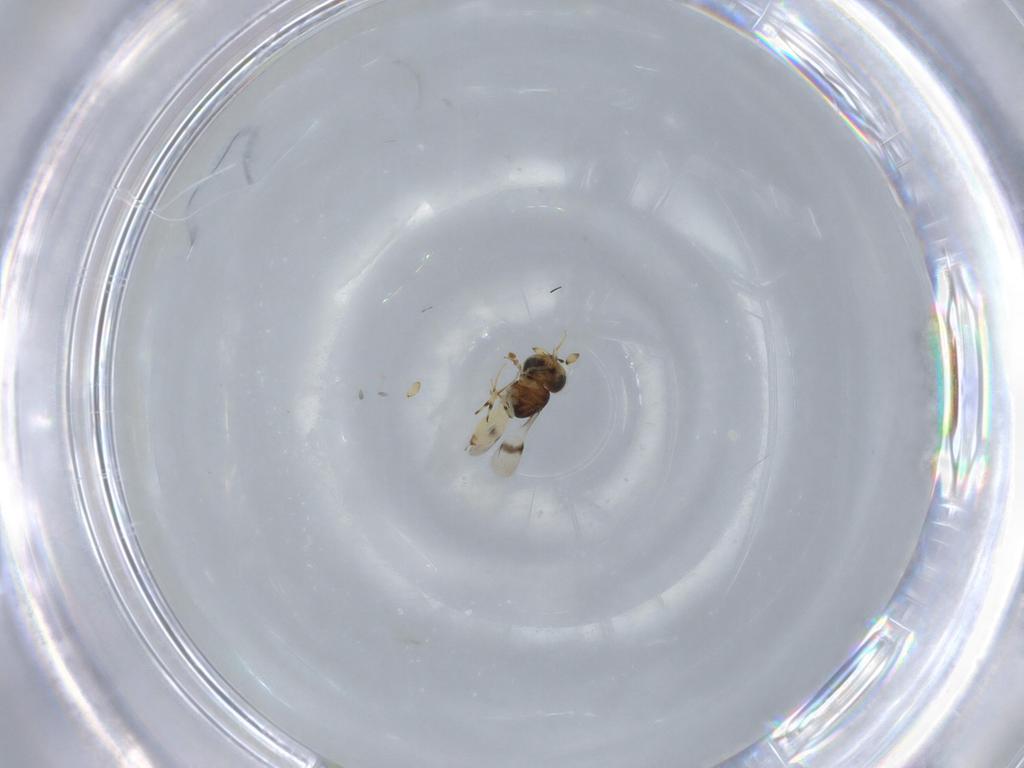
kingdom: Animalia
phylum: Arthropoda
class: Insecta
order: Hymenoptera
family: Scelionidae
